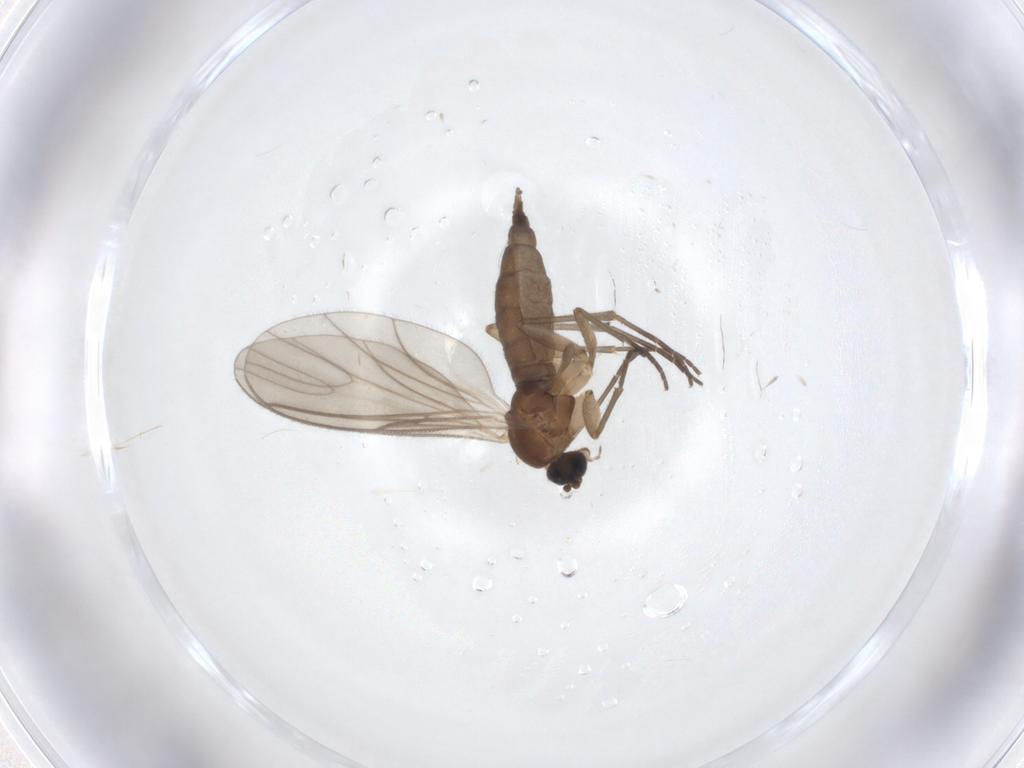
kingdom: Animalia
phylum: Arthropoda
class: Insecta
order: Diptera
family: Sciaridae
